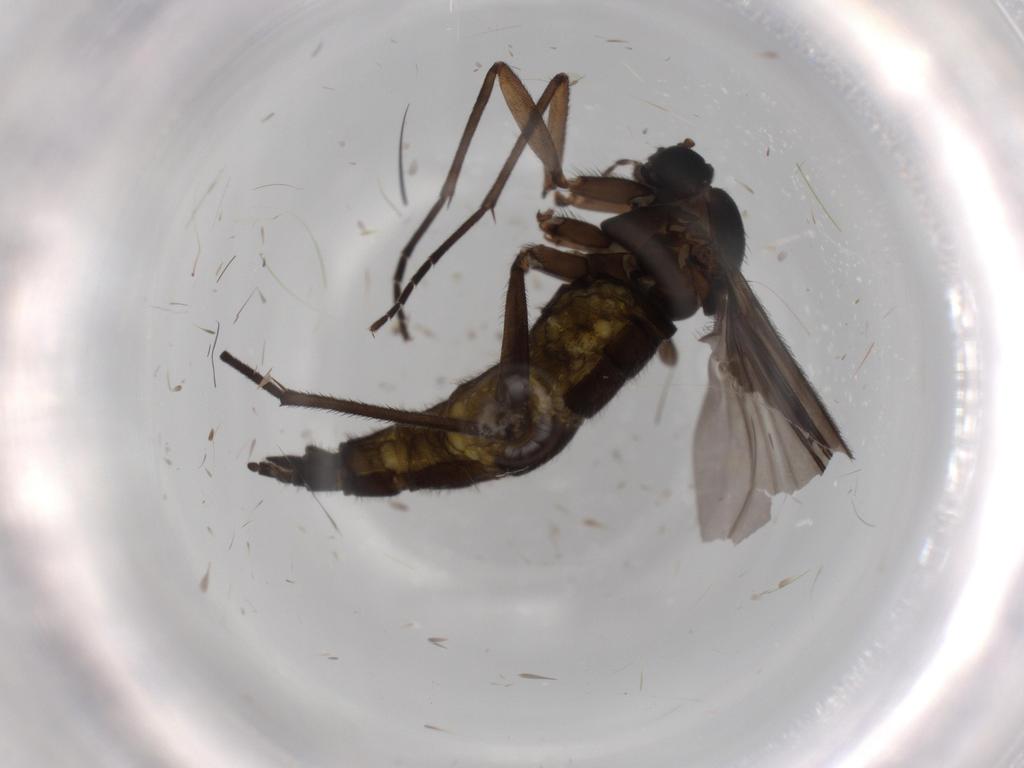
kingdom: Animalia
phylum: Arthropoda
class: Insecta
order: Diptera
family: Sciaridae
